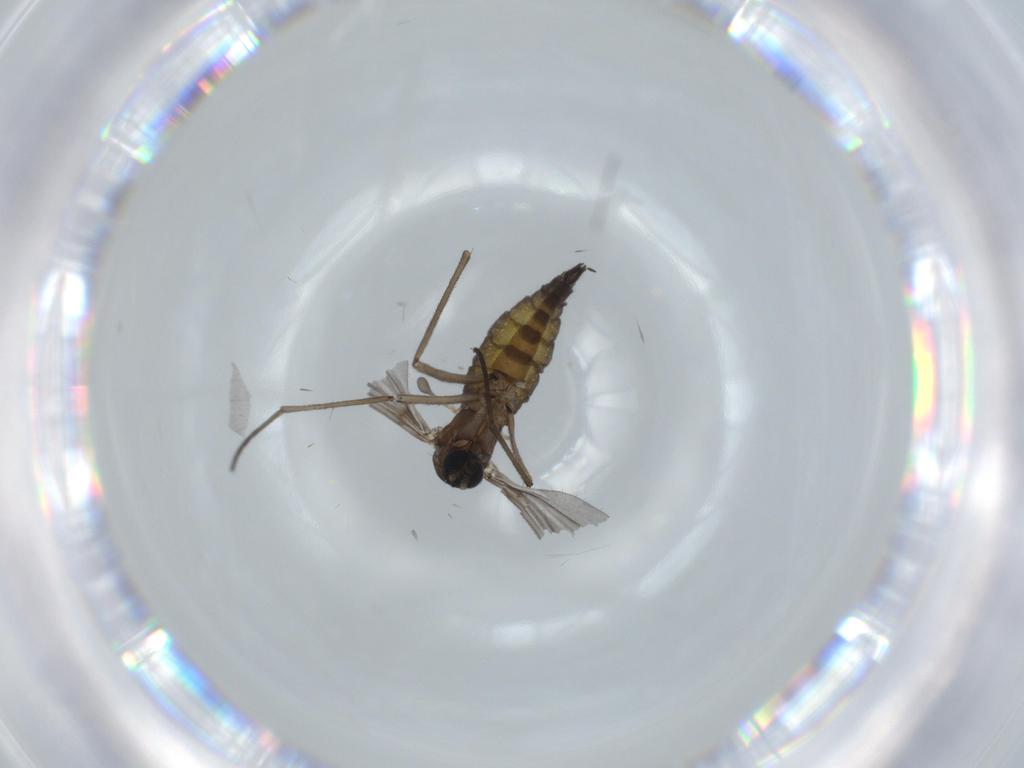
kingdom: Animalia
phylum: Arthropoda
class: Insecta
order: Diptera
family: Sciaridae
